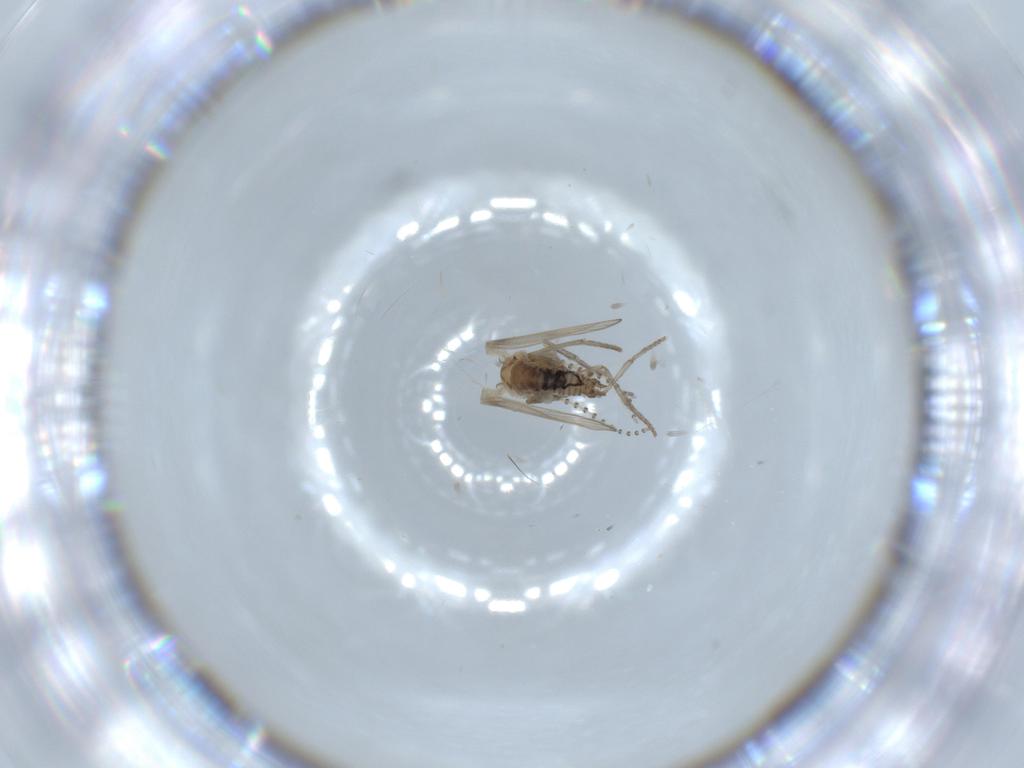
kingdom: Animalia
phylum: Arthropoda
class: Insecta
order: Diptera
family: Psychodidae
